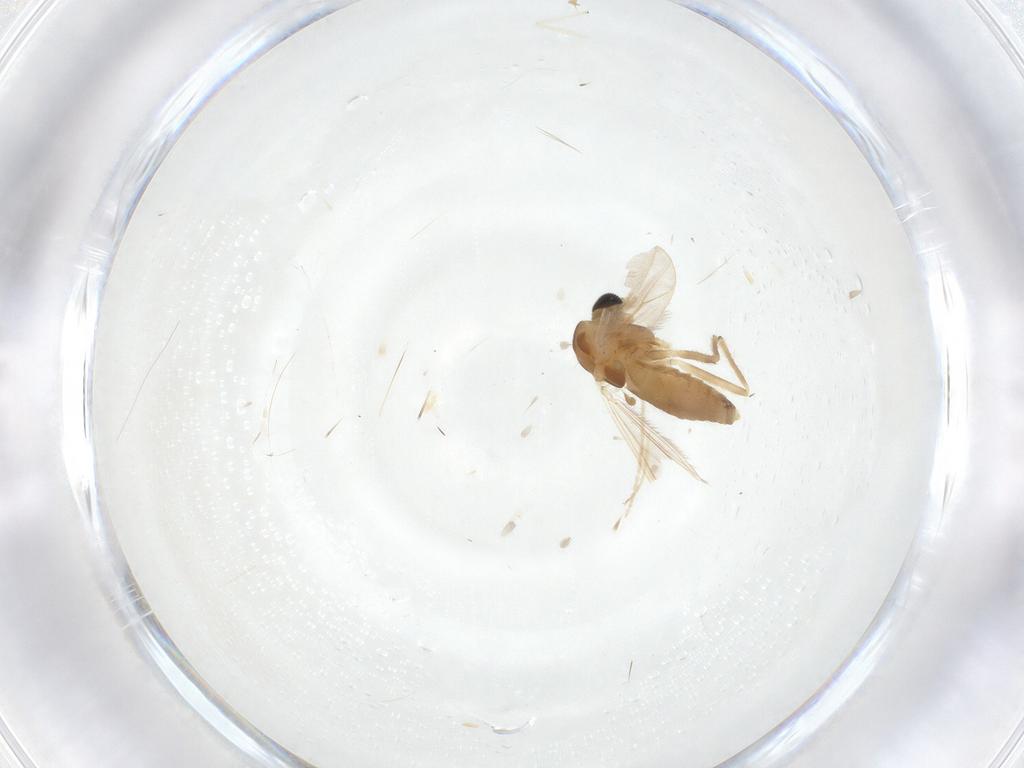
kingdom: Animalia
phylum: Arthropoda
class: Insecta
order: Diptera
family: Chironomidae
